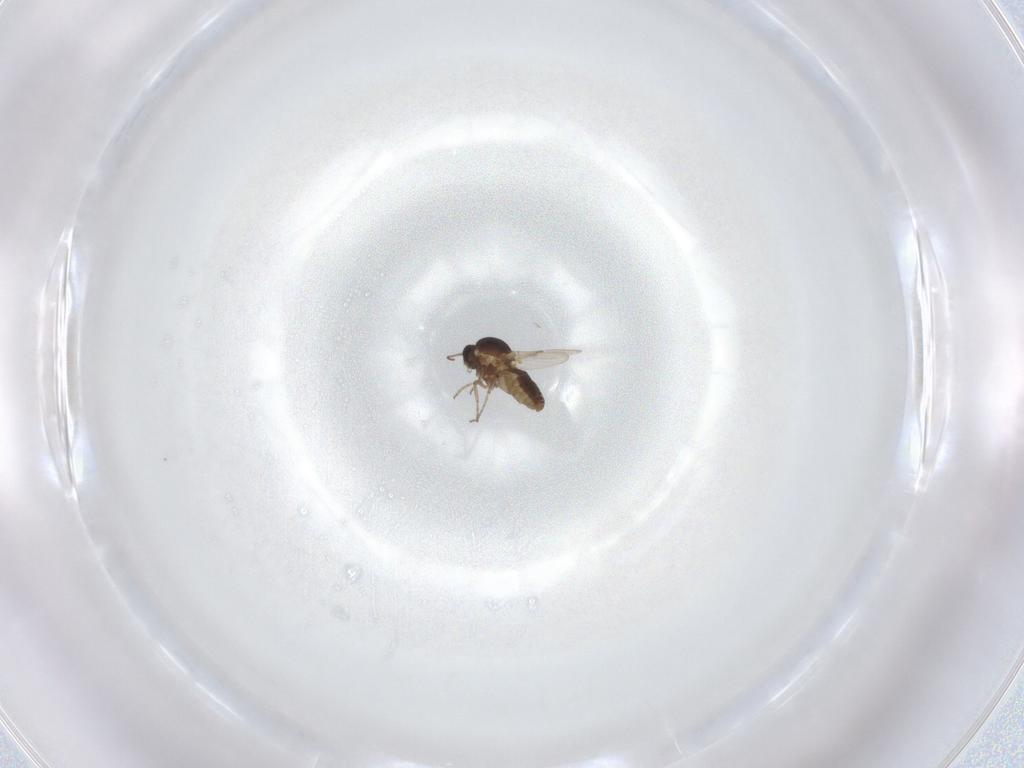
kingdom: Animalia
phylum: Arthropoda
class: Insecta
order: Diptera
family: Ceratopogonidae
